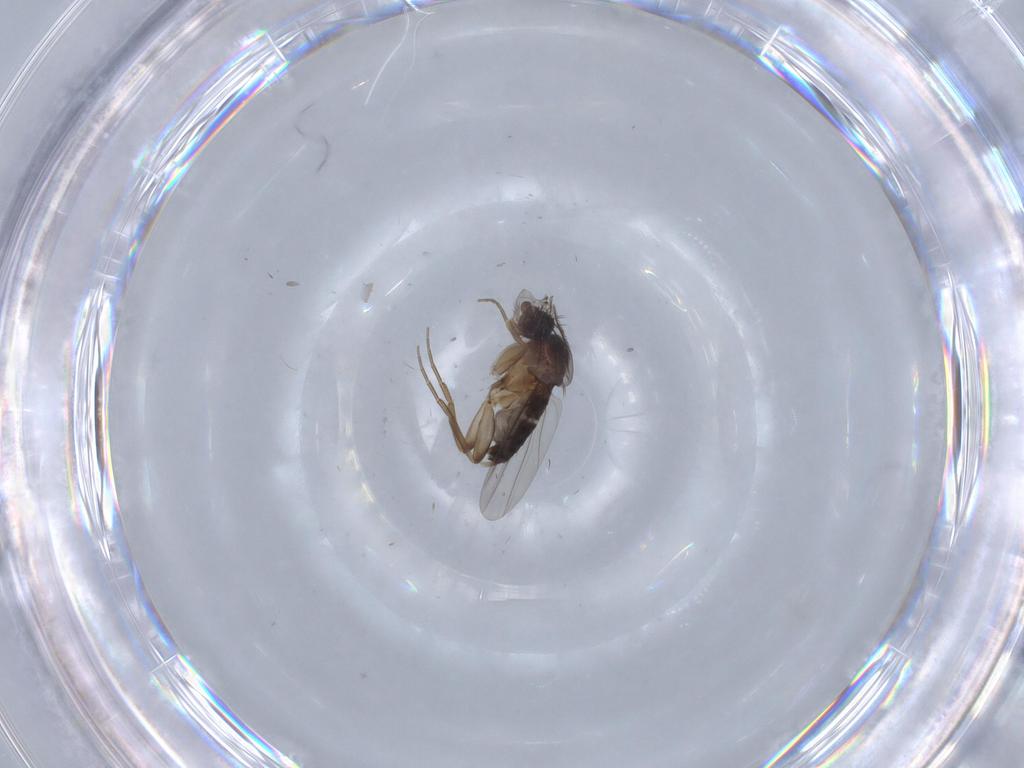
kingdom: Animalia
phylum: Arthropoda
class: Insecta
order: Diptera
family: Phoridae
